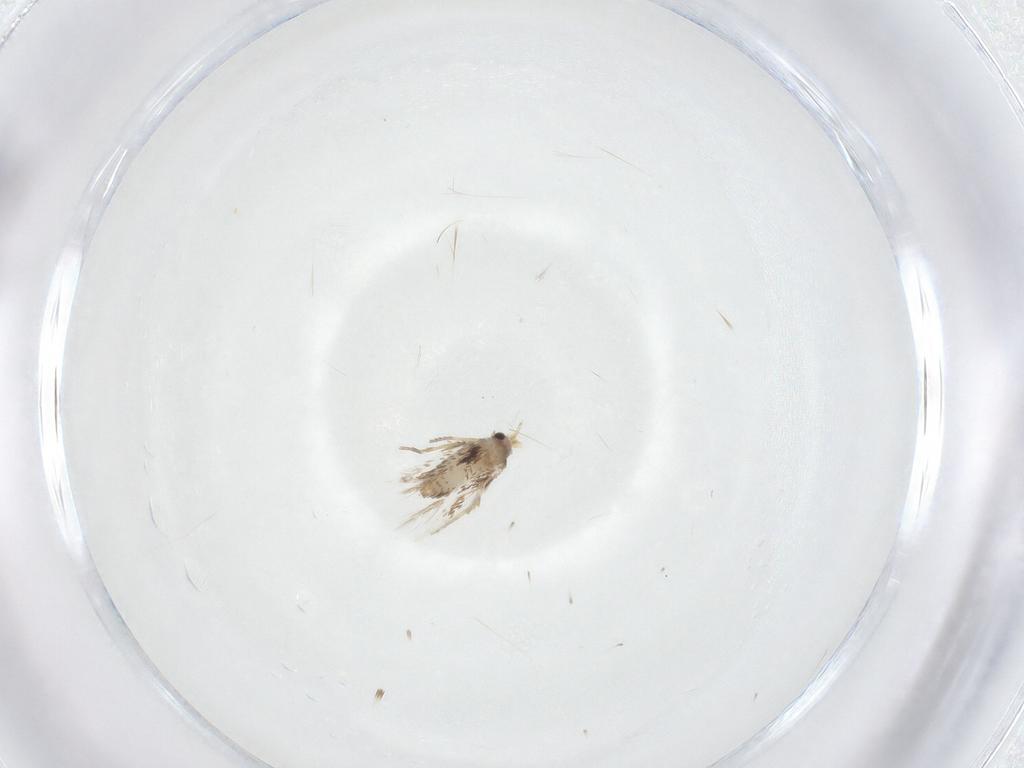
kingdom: Animalia
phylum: Arthropoda
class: Insecta
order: Lepidoptera
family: Nepticulidae
